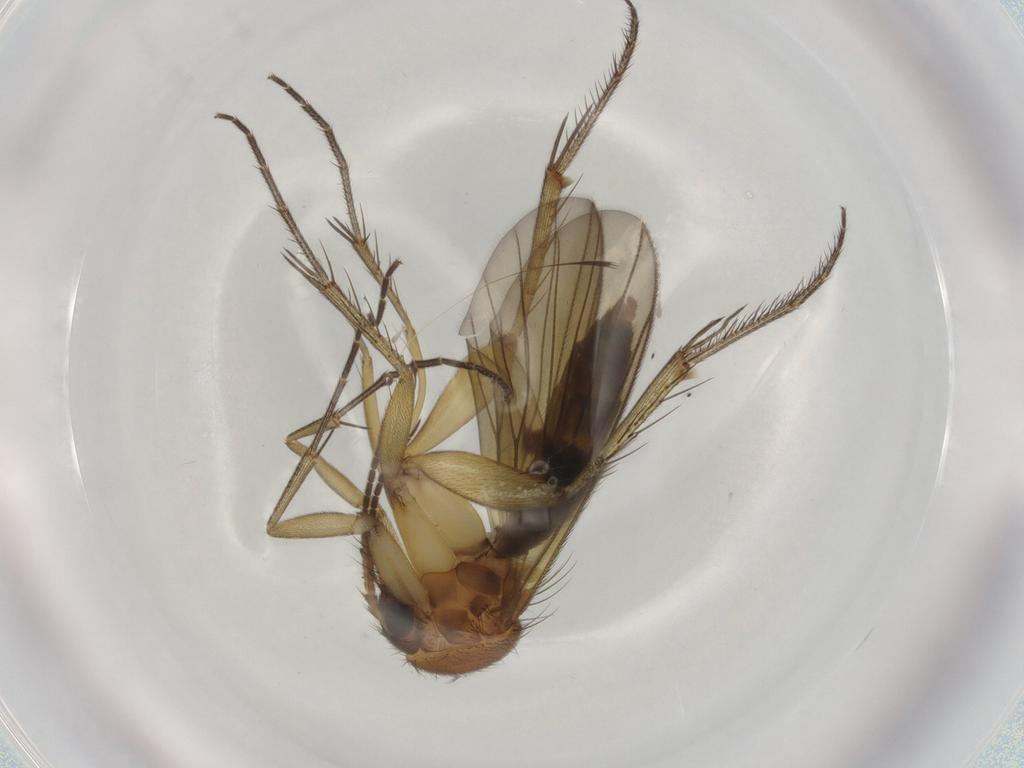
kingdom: Animalia
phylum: Arthropoda
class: Insecta
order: Diptera
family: Mycetophilidae
